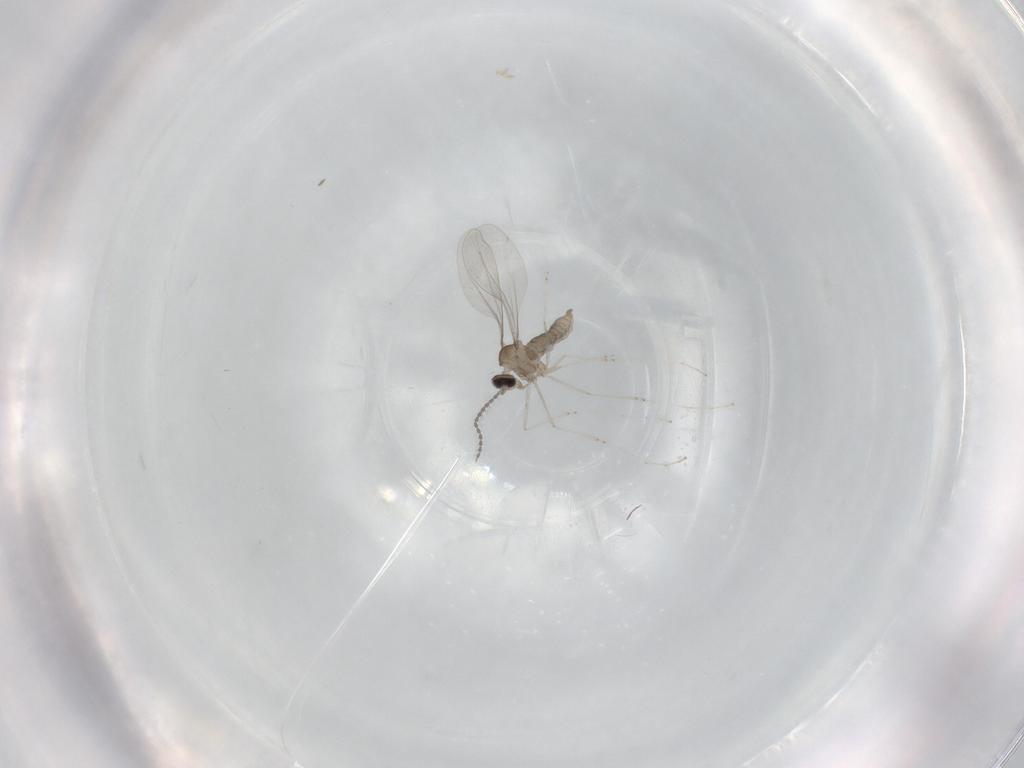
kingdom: Animalia
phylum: Arthropoda
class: Insecta
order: Diptera
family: Cecidomyiidae
